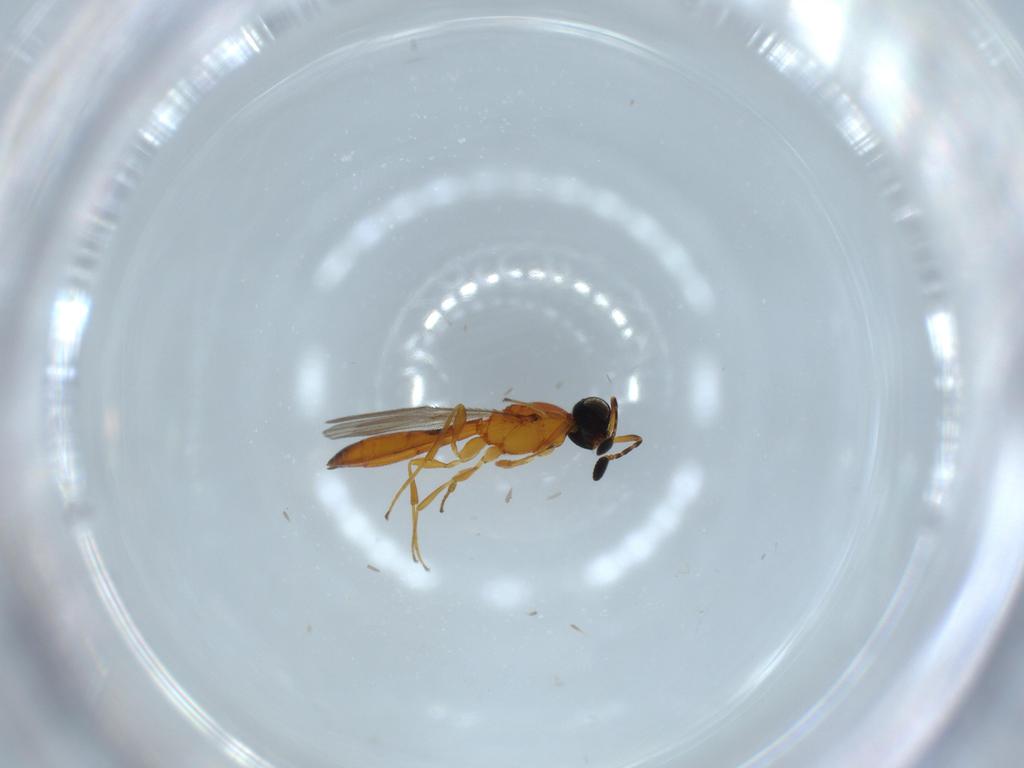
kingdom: Animalia
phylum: Arthropoda
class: Insecta
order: Hymenoptera
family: Scelionidae
